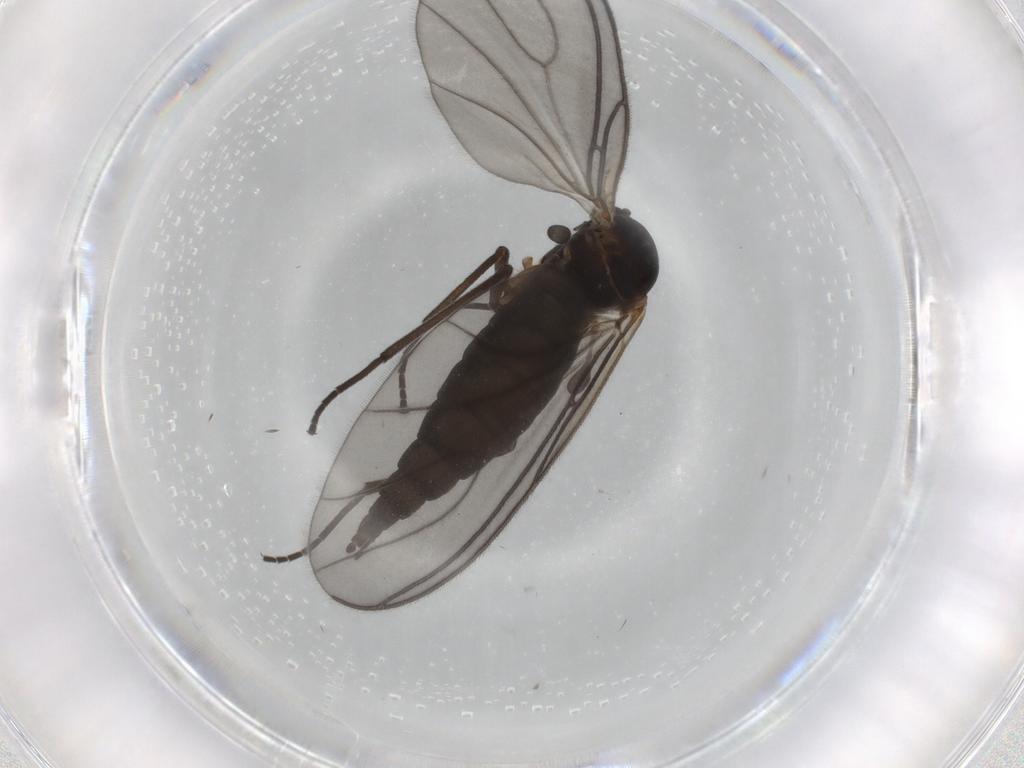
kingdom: Animalia
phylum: Arthropoda
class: Insecta
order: Diptera
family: Sciaridae
